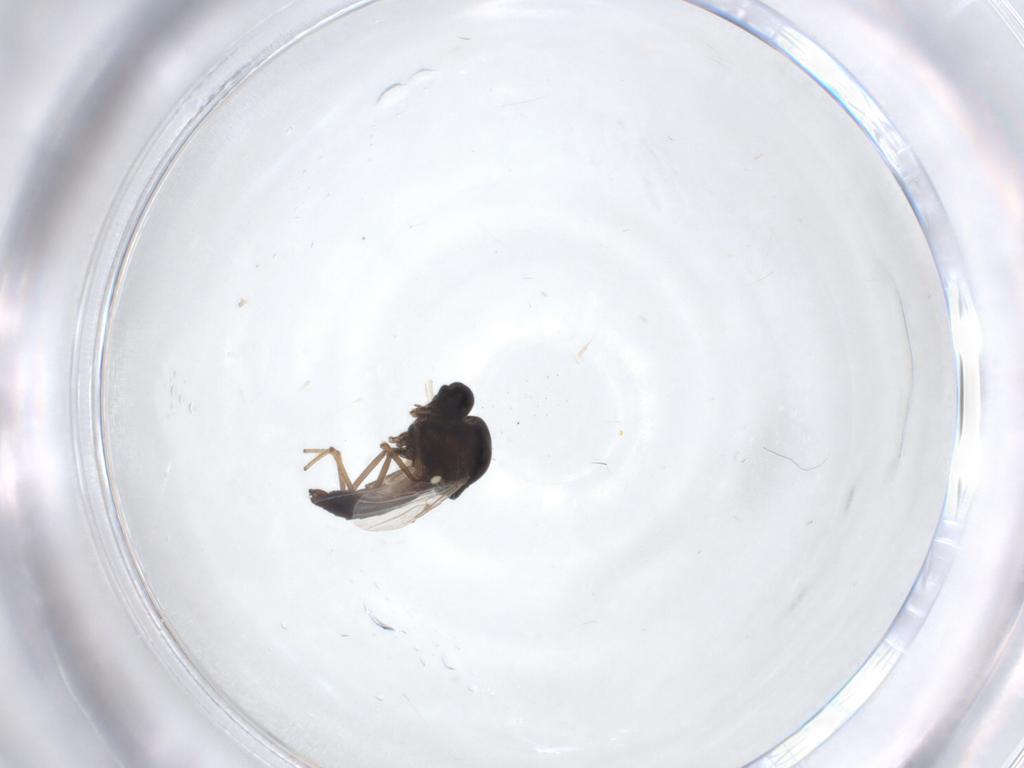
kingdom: Animalia
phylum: Arthropoda
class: Insecta
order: Diptera
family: Ceratopogonidae
